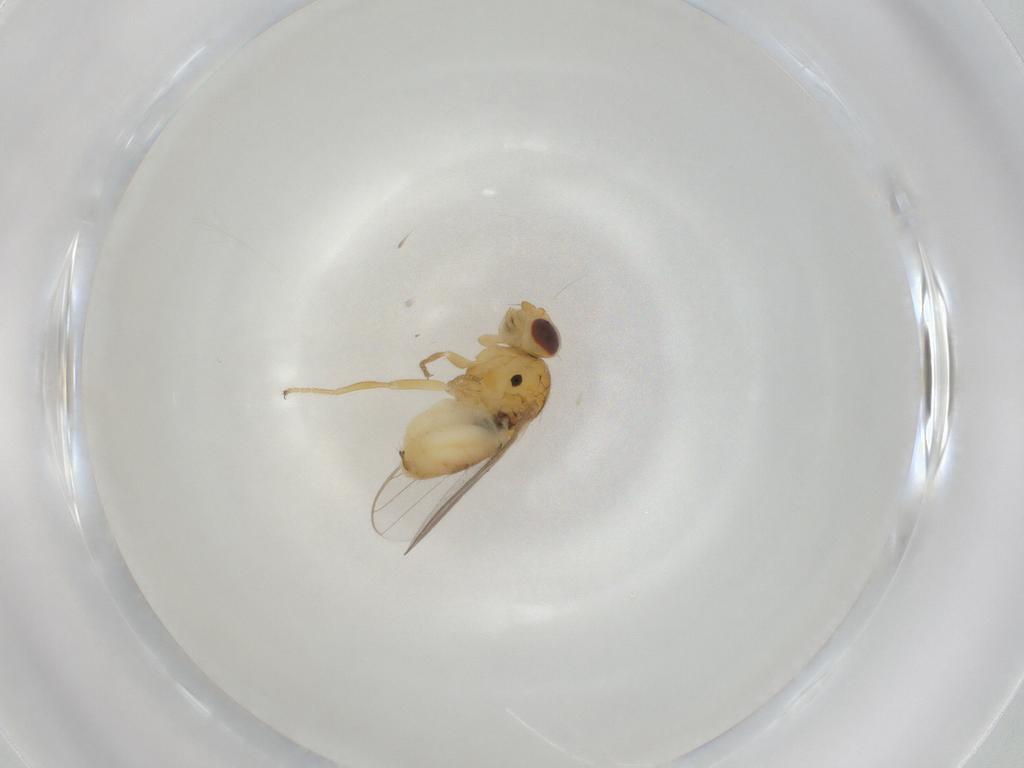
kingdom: Animalia
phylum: Arthropoda
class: Insecta
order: Diptera
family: Chloropidae
